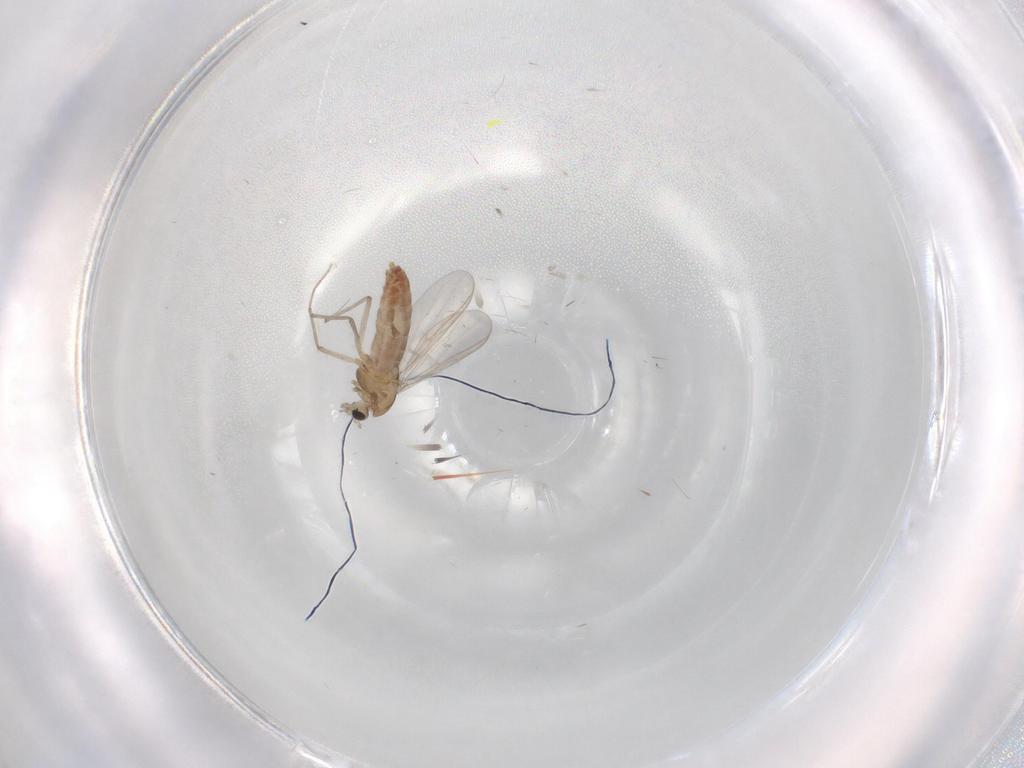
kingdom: Animalia
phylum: Arthropoda
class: Insecta
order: Diptera
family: Chironomidae
